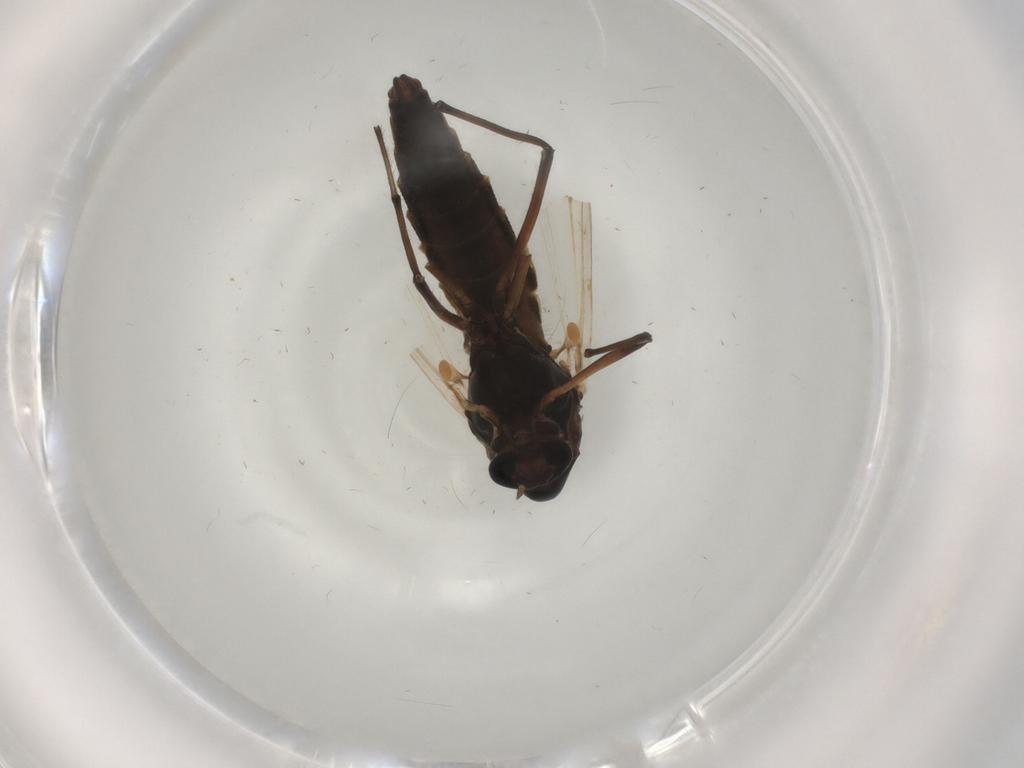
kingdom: Animalia
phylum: Arthropoda
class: Insecta
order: Diptera
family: Chironomidae
